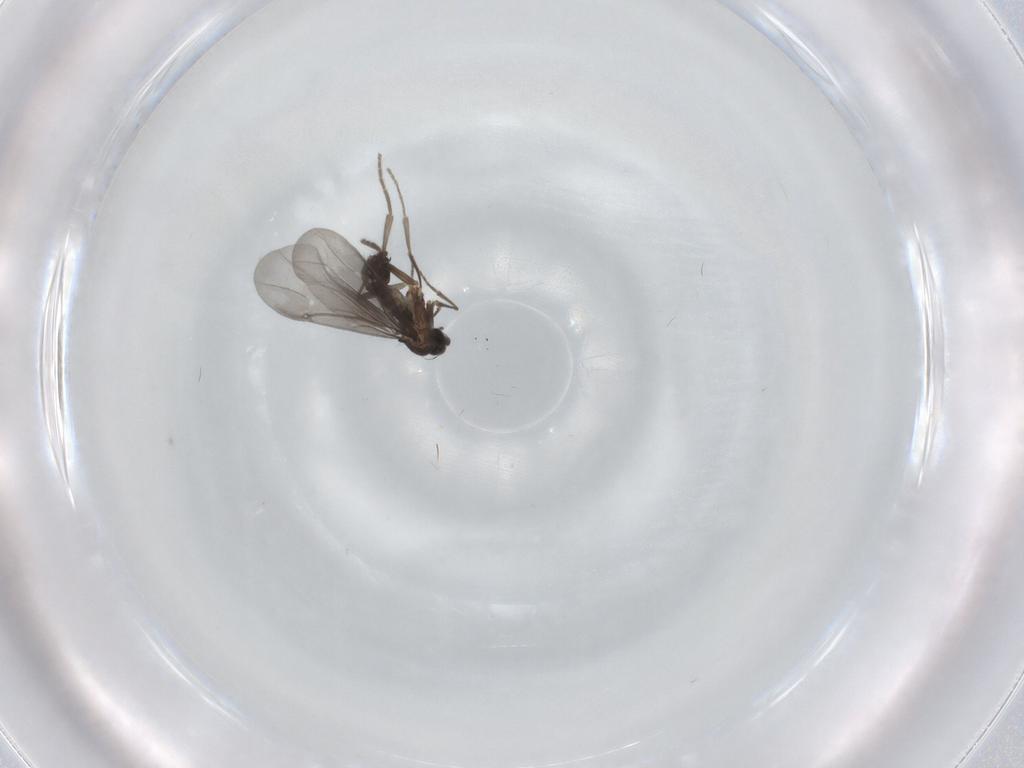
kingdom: Animalia
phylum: Arthropoda
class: Insecta
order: Diptera
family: Phoridae
